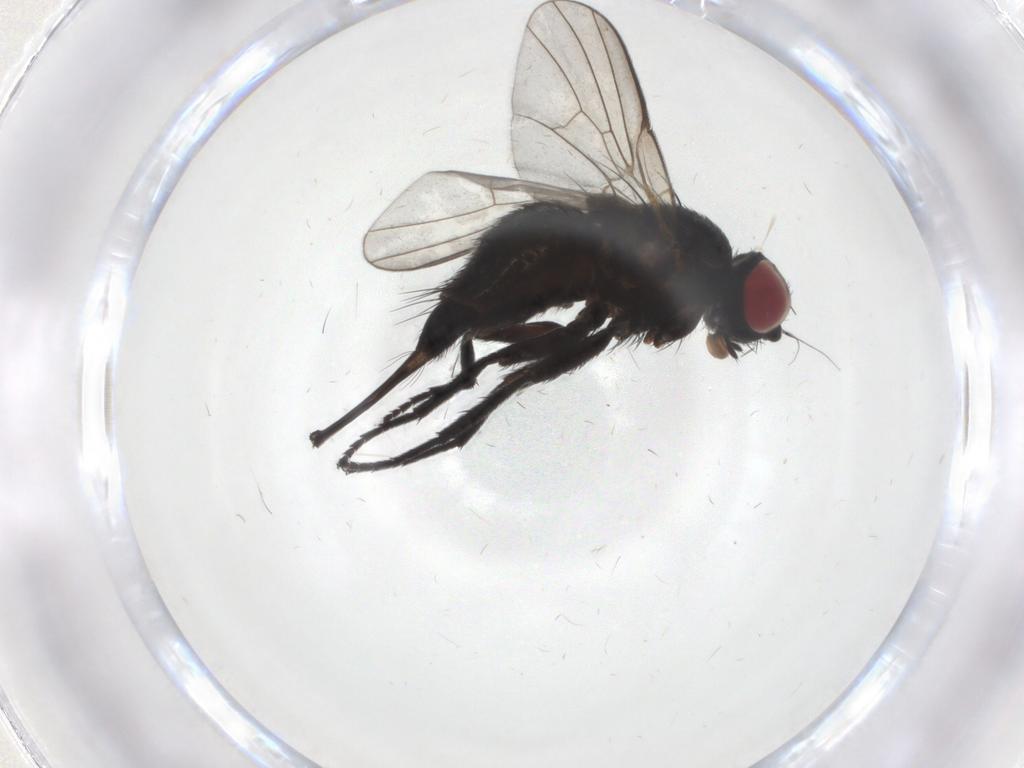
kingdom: Animalia
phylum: Arthropoda
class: Insecta
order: Diptera
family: Agromyzidae
